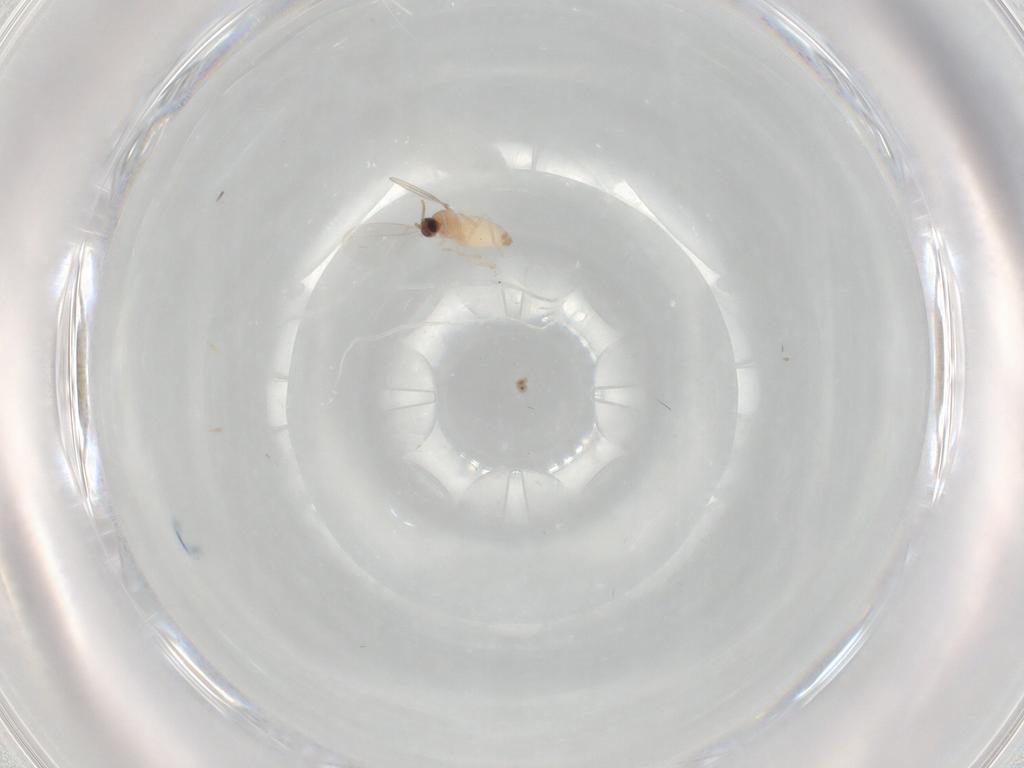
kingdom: Animalia
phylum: Arthropoda
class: Insecta
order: Diptera
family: Cecidomyiidae
